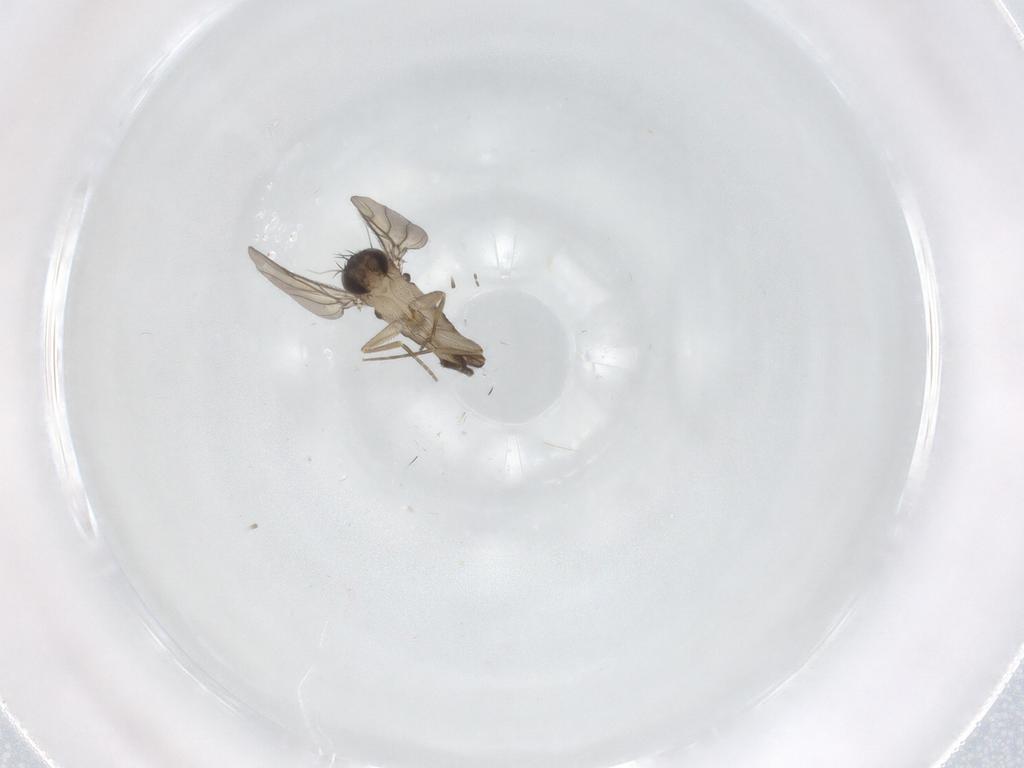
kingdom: Animalia
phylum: Arthropoda
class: Insecta
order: Diptera
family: Phoridae
